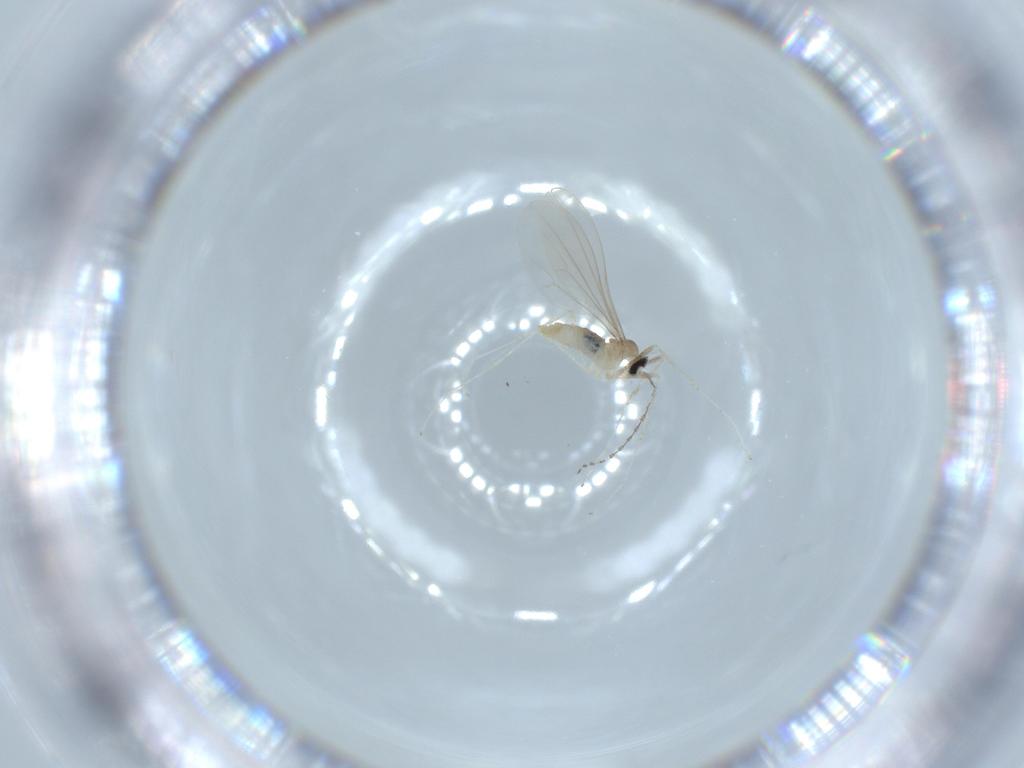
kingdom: Animalia
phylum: Arthropoda
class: Insecta
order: Diptera
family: Cecidomyiidae
